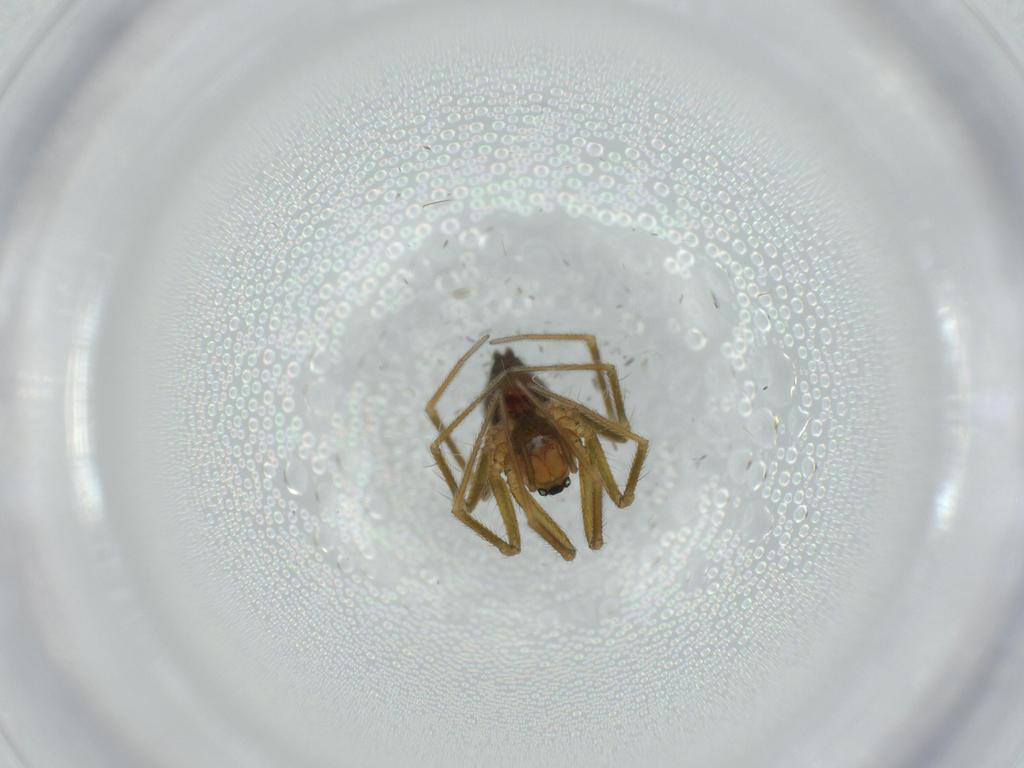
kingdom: Animalia
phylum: Arthropoda
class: Arachnida
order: Araneae
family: Linyphiidae
